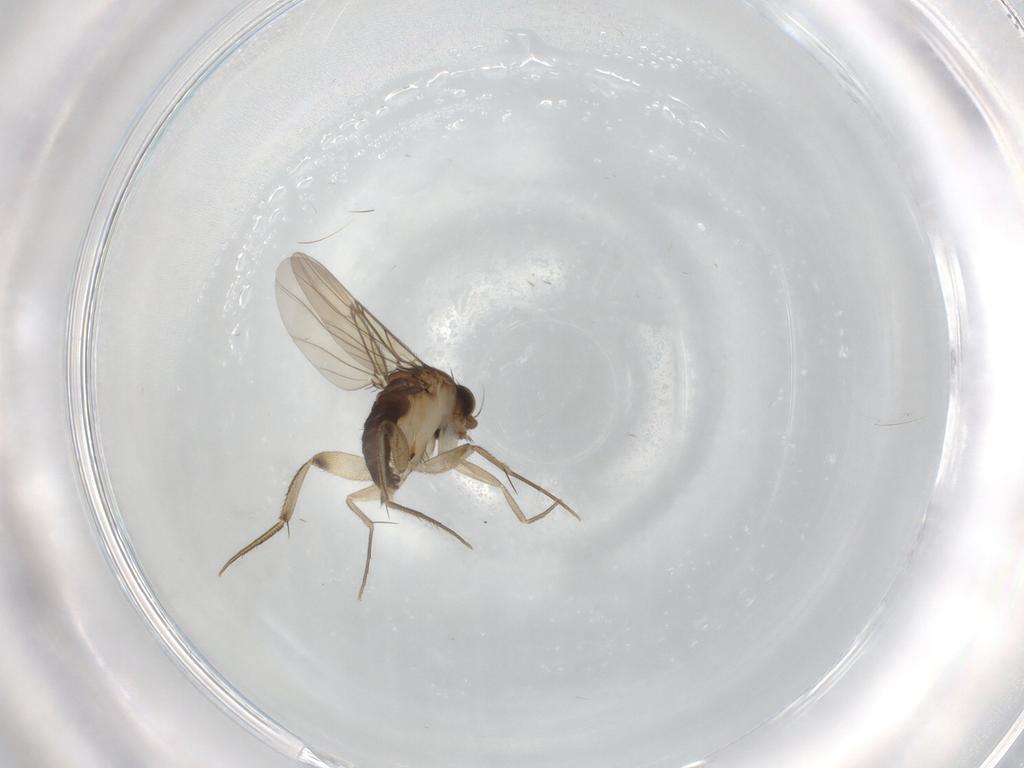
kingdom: Animalia
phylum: Arthropoda
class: Insecta
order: Diptera
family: Phoridae
